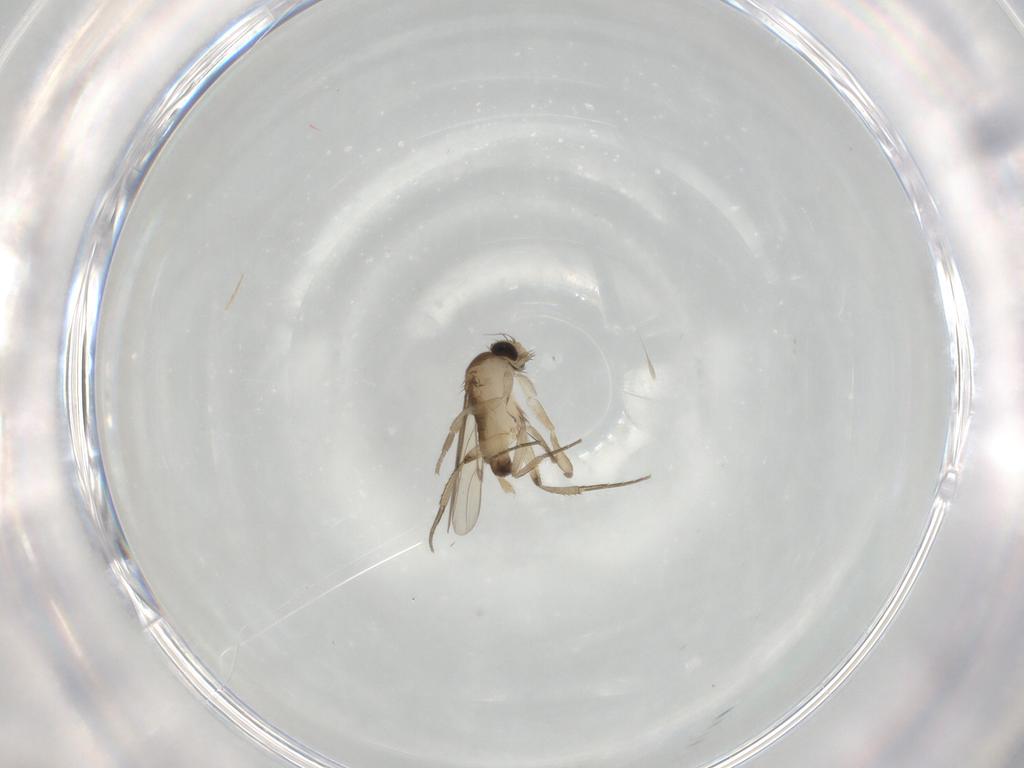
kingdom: Animalia
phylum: Arthropoda
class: Insecta
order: Diptera
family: Phoridae
